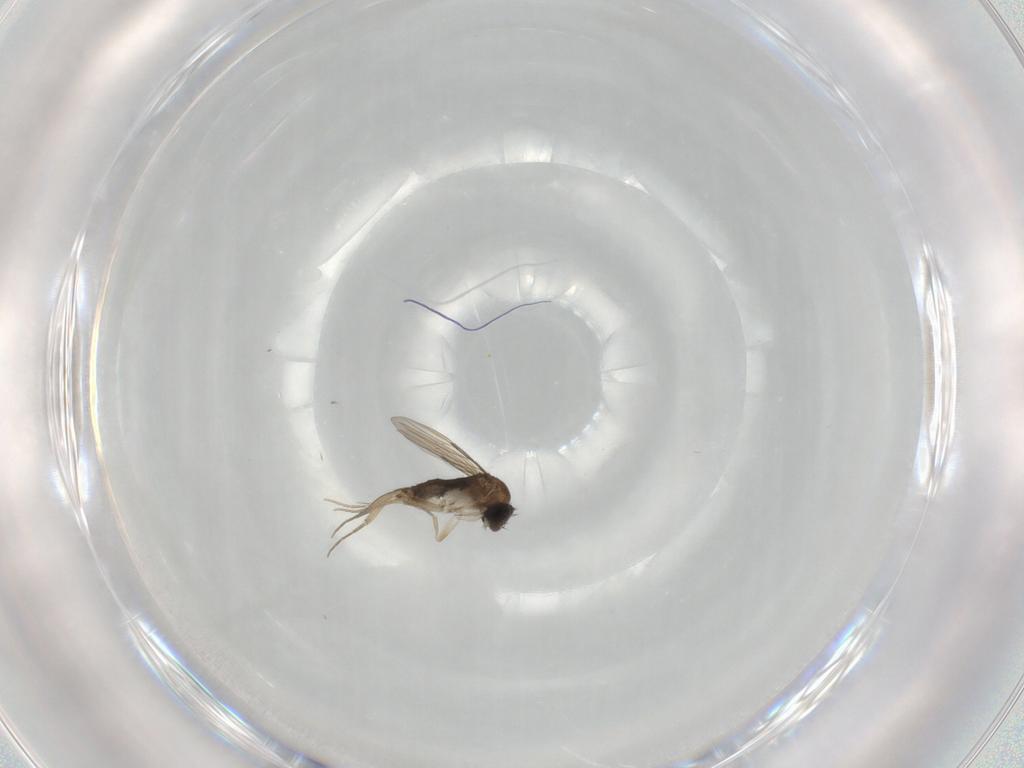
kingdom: Animalia
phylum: Arthropoda
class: Insecta
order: Diptera
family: Phoridae
